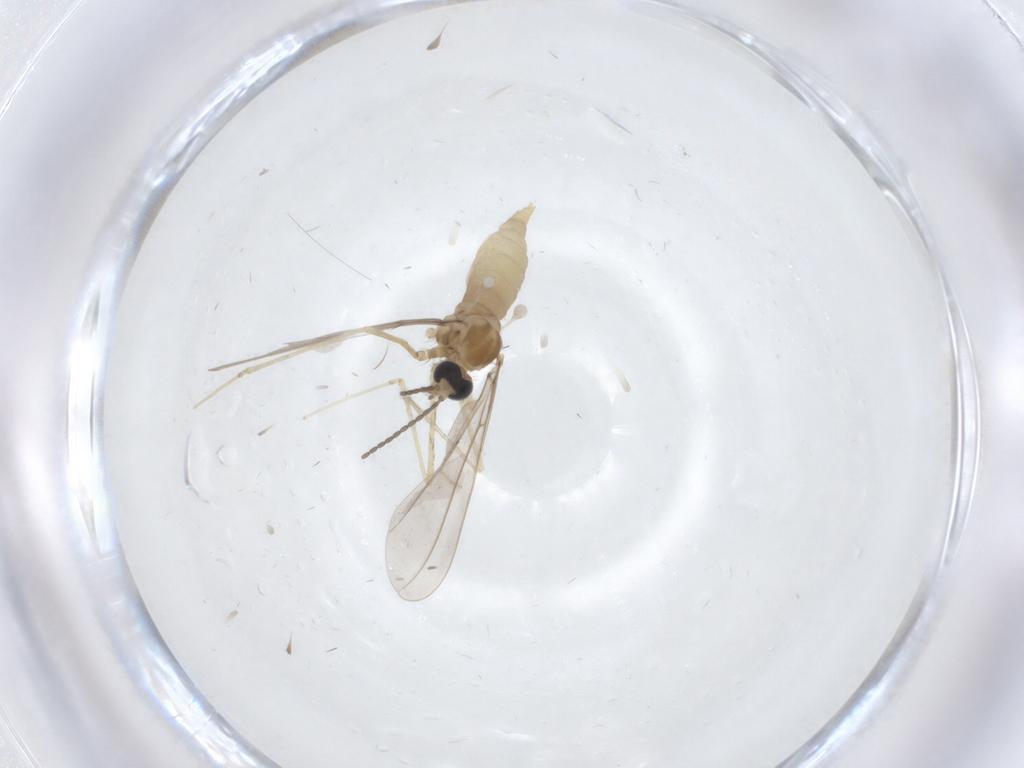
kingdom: Animalia
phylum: Arthropoda
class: Insecta
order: Diptera
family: Cecidomyiidae
